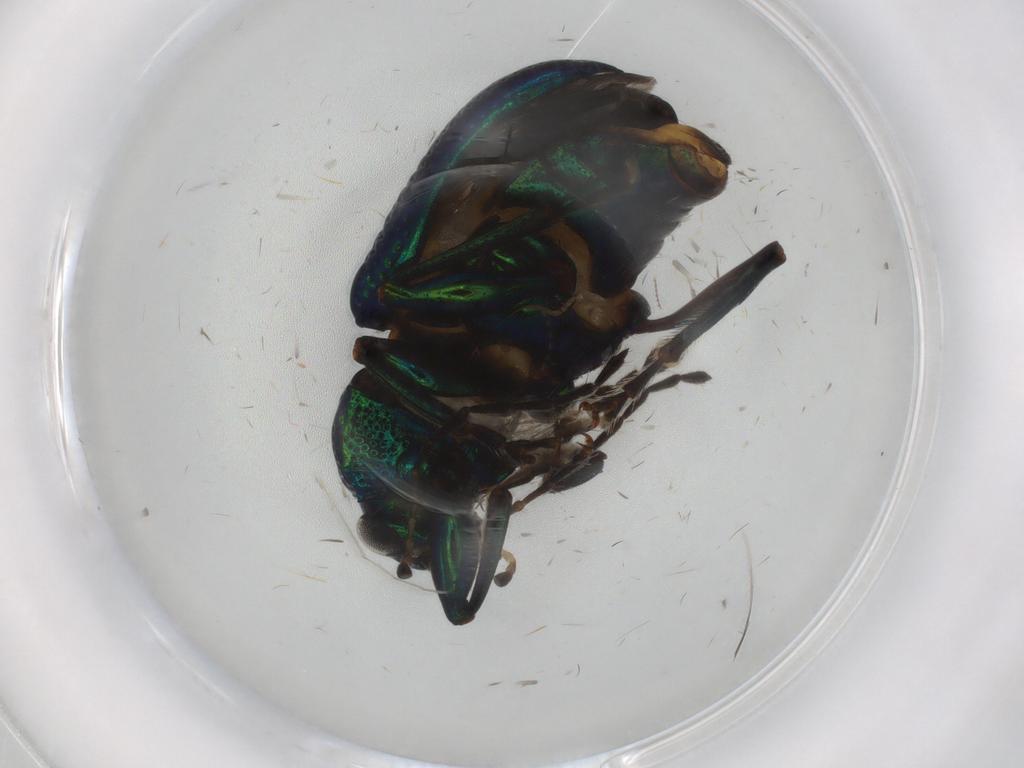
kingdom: Animalia
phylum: Arthropoda
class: Insecta
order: Coleoptera
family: Chrysomelidae
